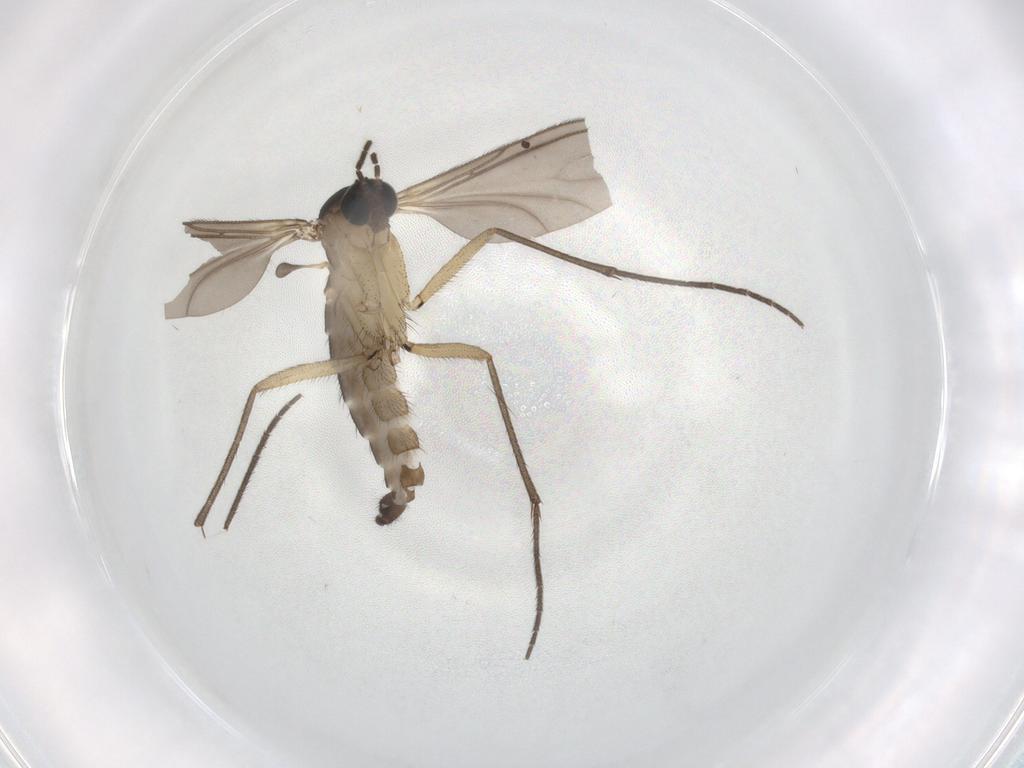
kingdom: Animalia
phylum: Arthropoda
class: Insecta
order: Diptera
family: Sciaridae
